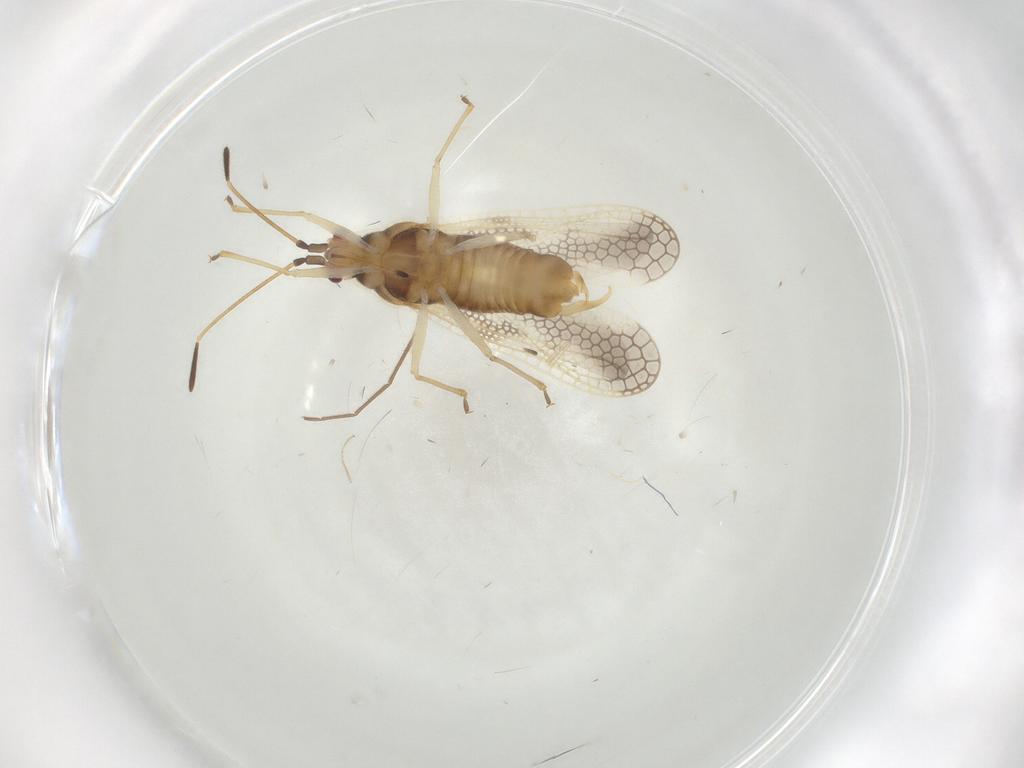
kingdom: Animalia
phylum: Arthropoda
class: Insecta
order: Hemiptera
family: Tingidae
